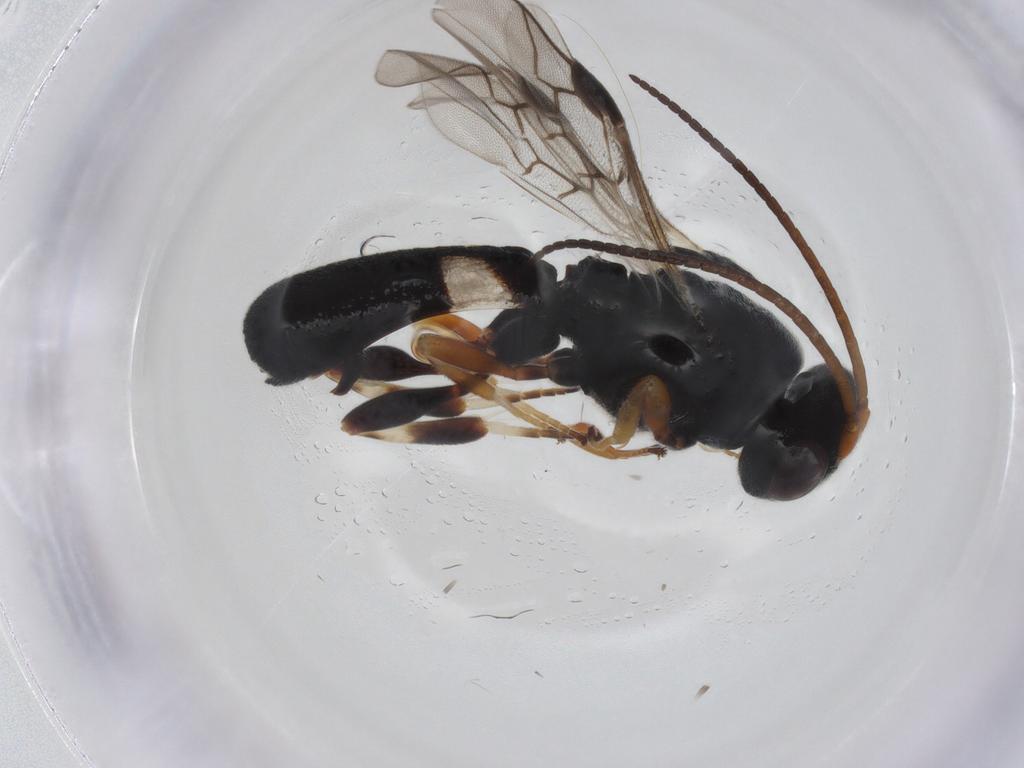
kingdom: Animalia
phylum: Arthropoda
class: Insecta
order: Hymenoptera
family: Braconidae
